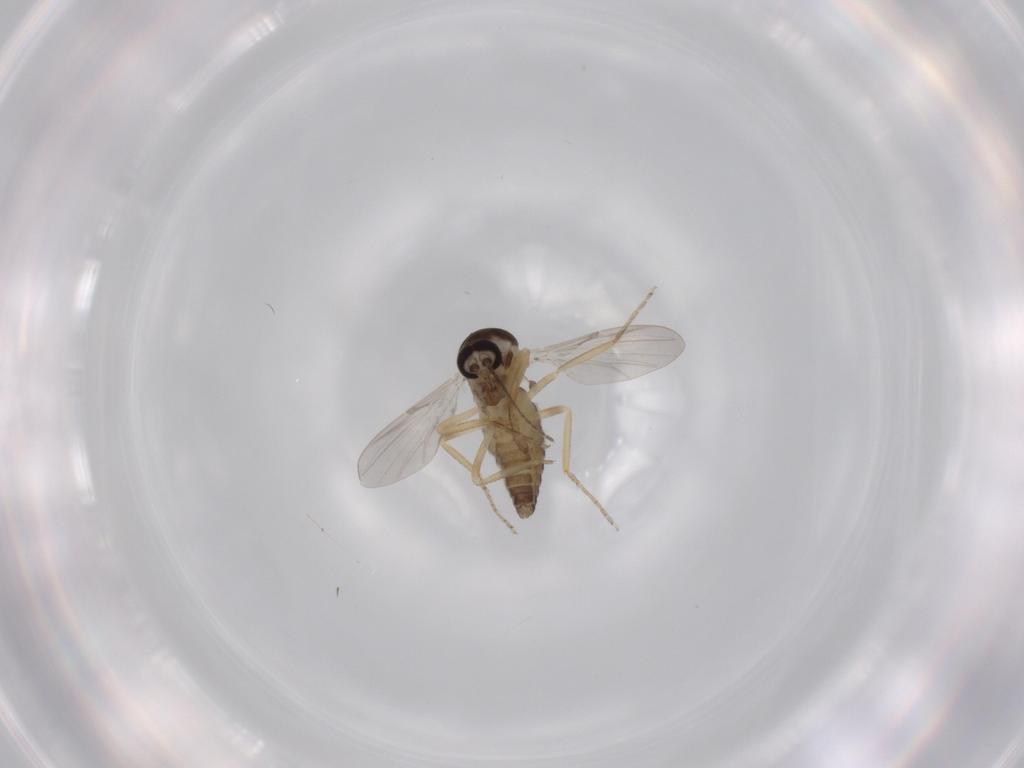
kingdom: Animalia
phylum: Arthropoda
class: Insecta
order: Diptera
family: Ceratopogonidae
